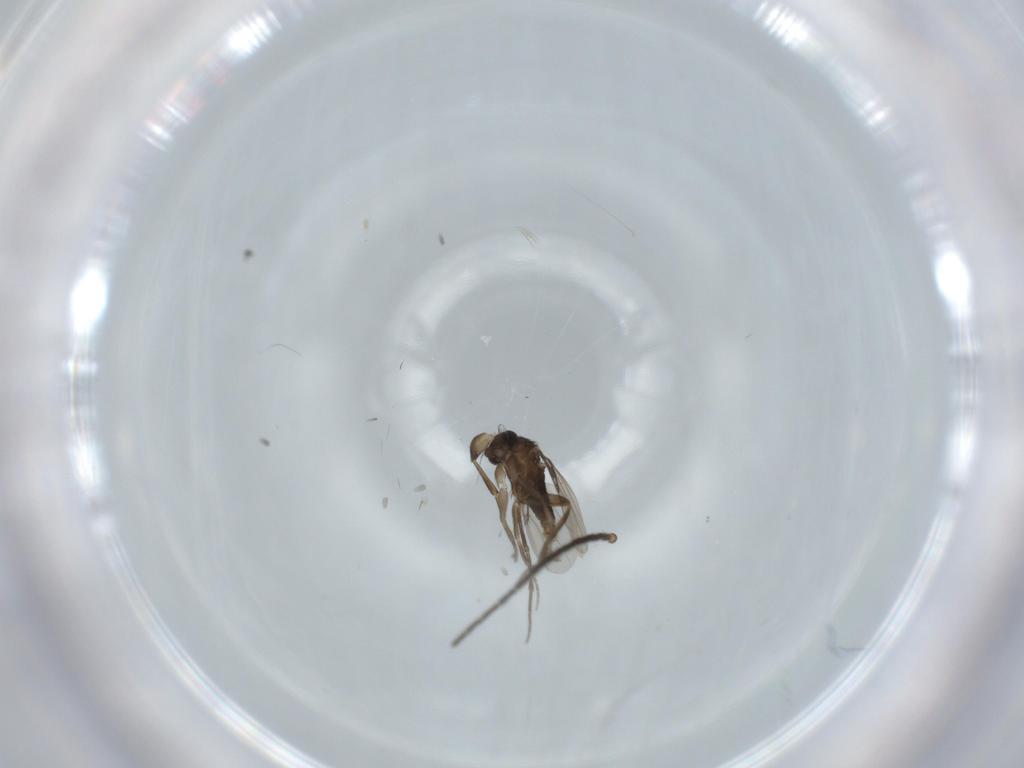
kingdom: Animalia
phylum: Arthropoda
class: Insecta
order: Diptera
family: Phoridae
